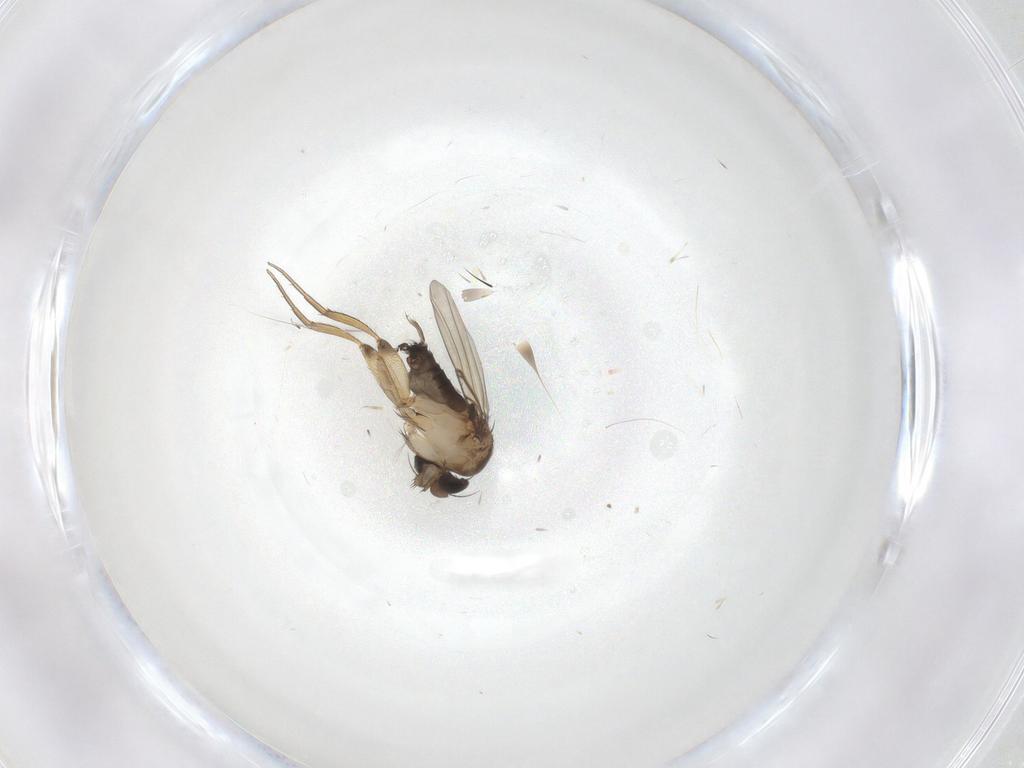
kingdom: Animalia
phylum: Arthropoda
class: Insecta
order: Diptera
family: Phoridae
